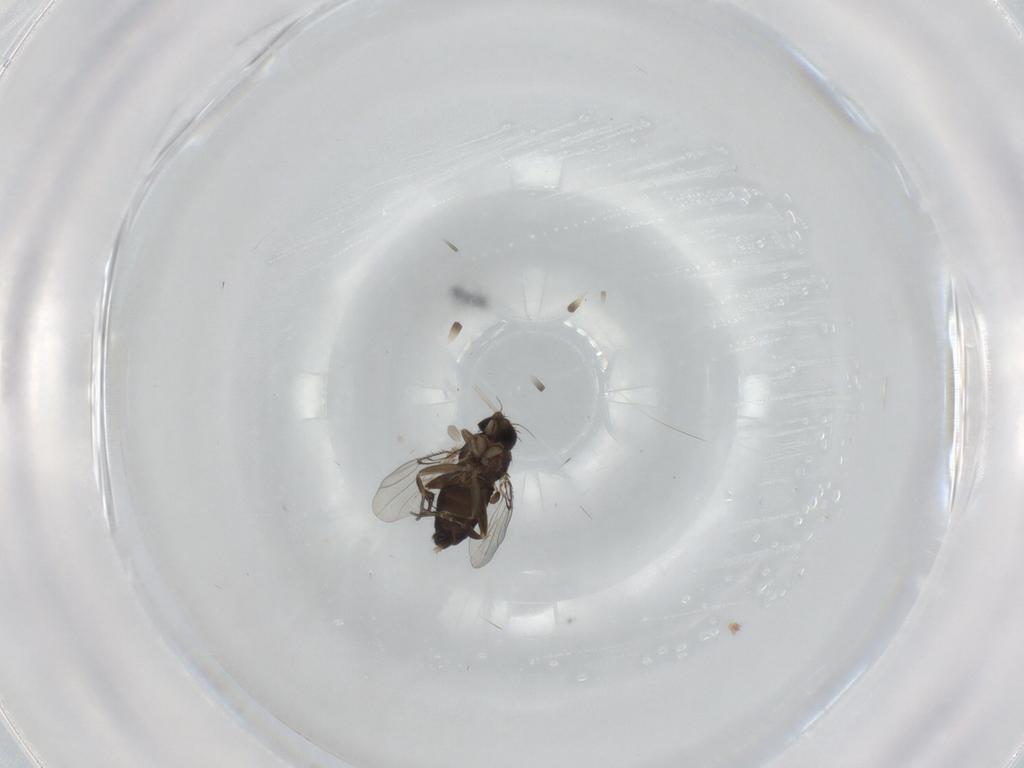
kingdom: Animalia
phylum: Arthropoda
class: Insecta
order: Diptera
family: Phoridae
